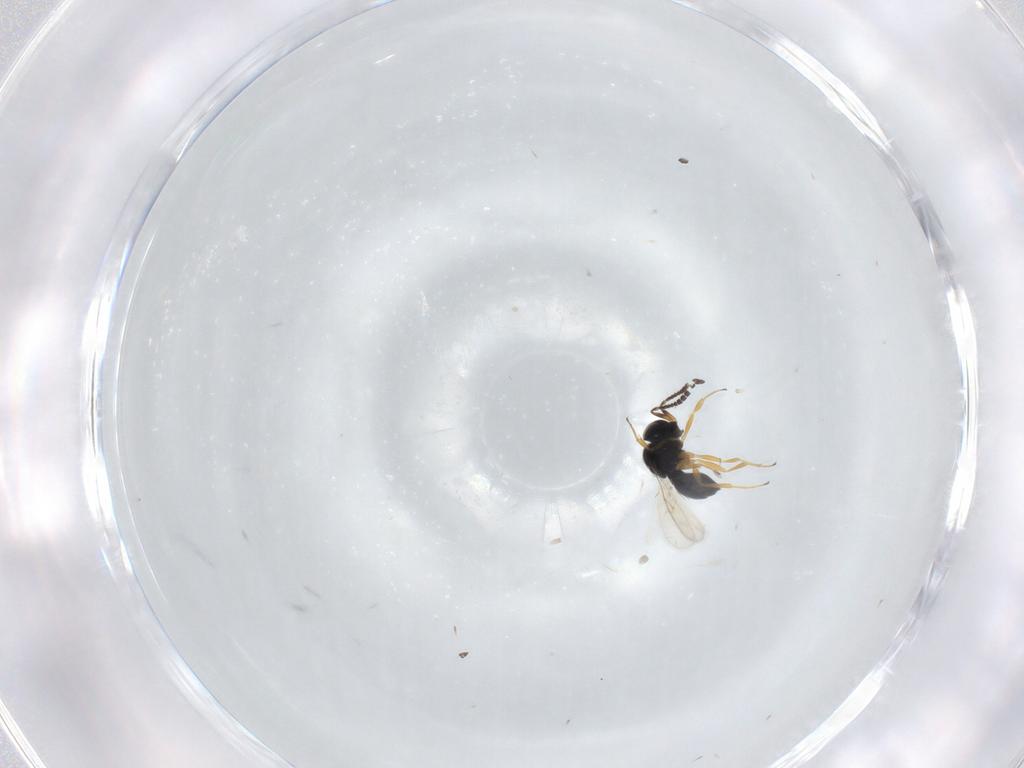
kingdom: Animalia
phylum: Arthropoda
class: Insecta
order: Hymenoptera
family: Scelionidae
